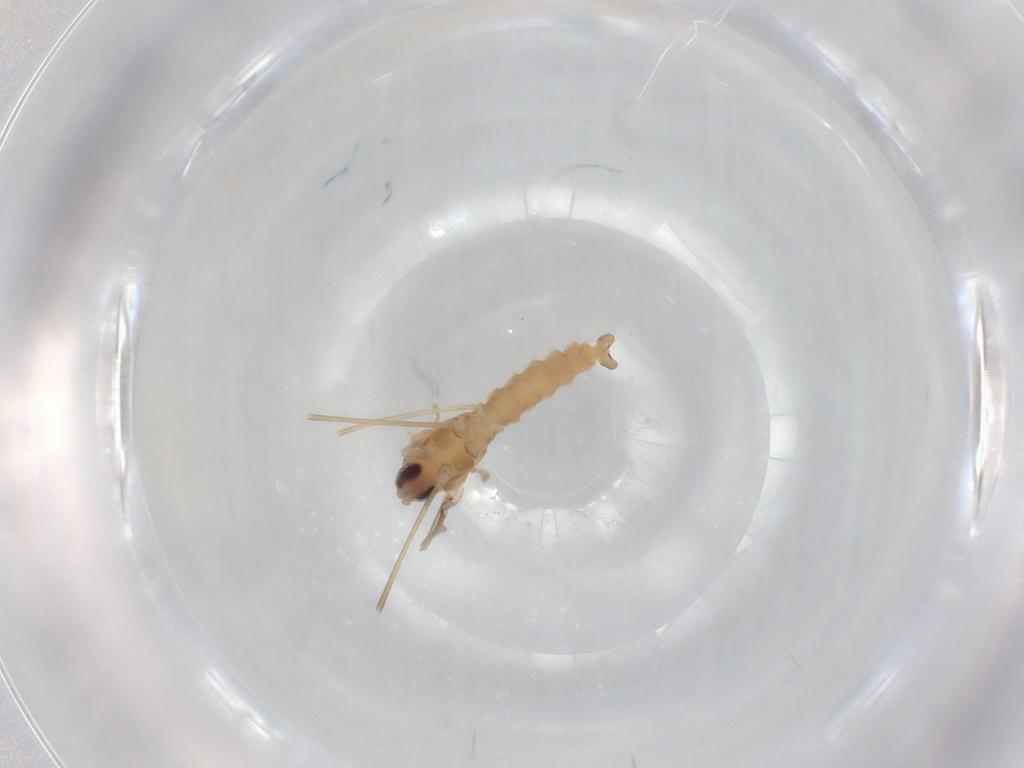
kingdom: Animalia
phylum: Arthropoda
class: Insecta
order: Diptera
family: Cecidomyiidae
